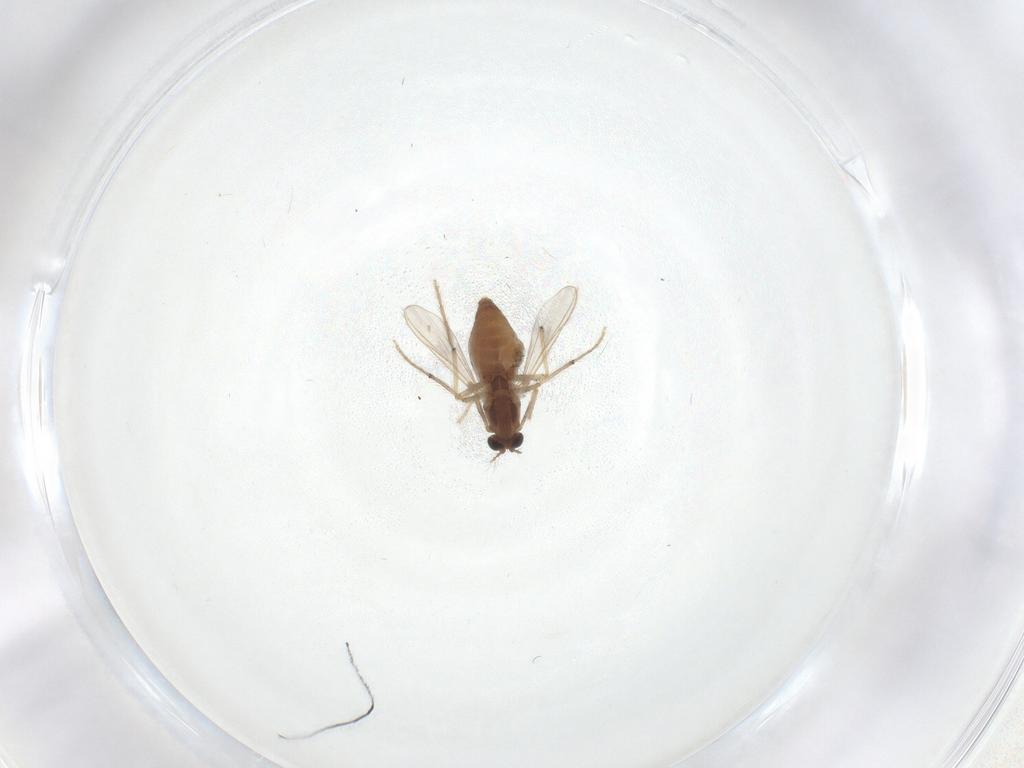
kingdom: Animalia
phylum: Arthropoda
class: Insecta
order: Diptera
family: Chironomidae
